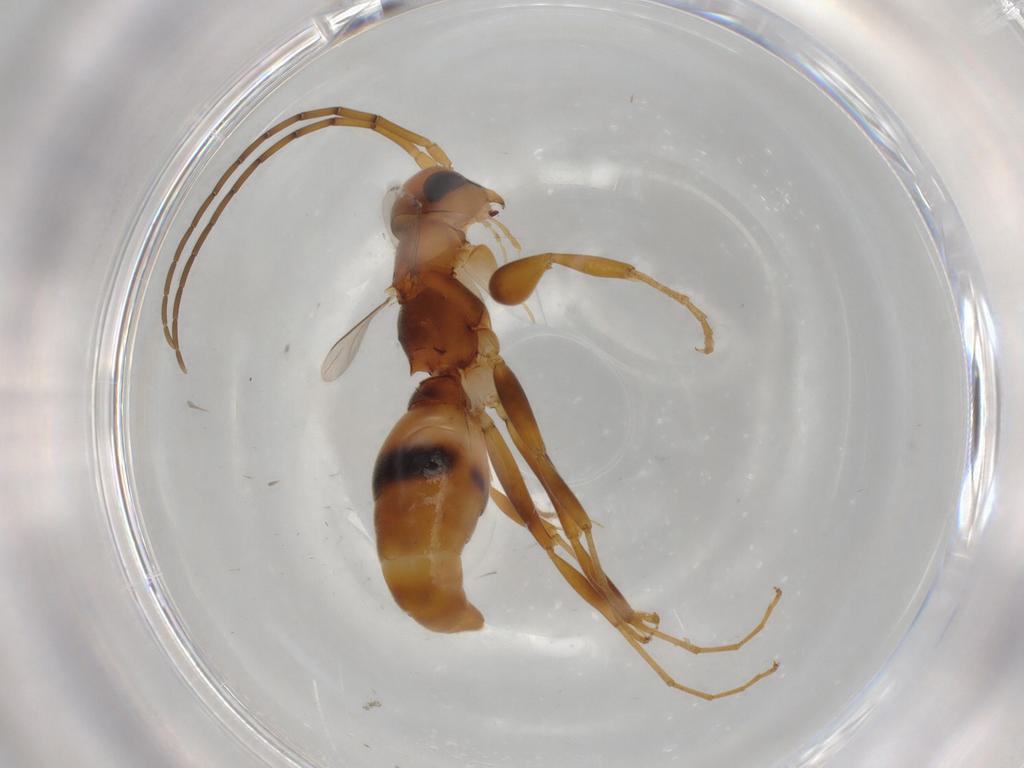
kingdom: Animalia
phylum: Arthropoda
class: Insecta
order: Hymenoptera
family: Rhopalosomatidae
